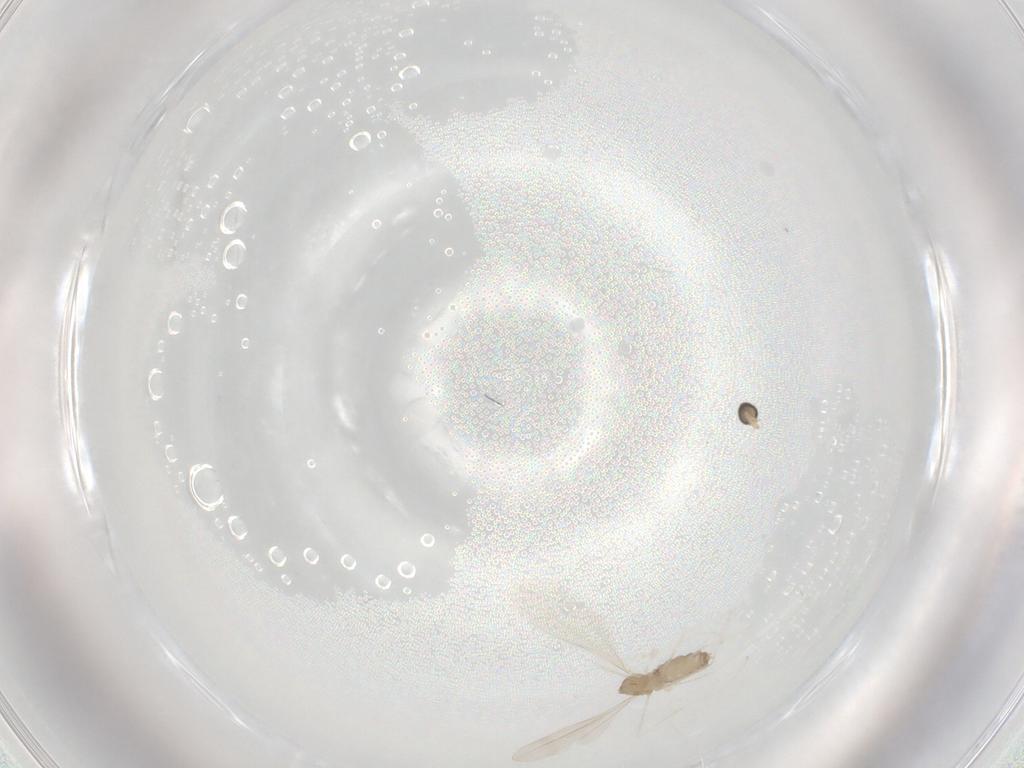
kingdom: Animalia
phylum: Arthropoda
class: Insecta
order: Diptera
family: Cecidomyiidae
